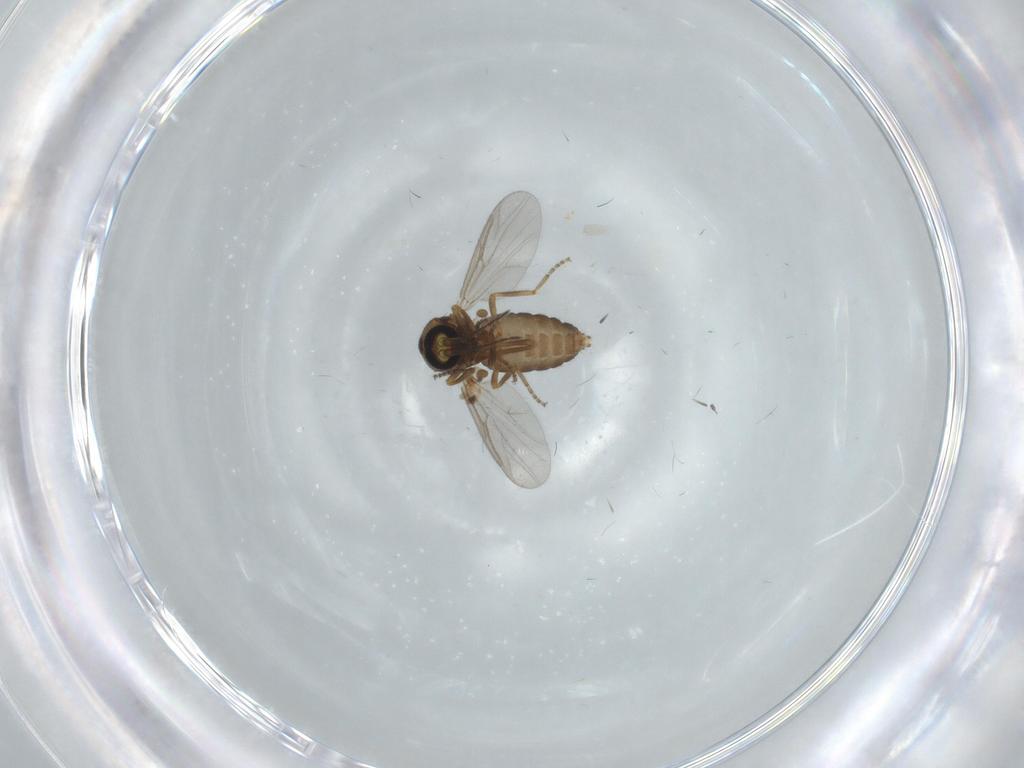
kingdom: Animalia
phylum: Arthropoda
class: Insecta
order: Diptera
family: Ceratopogonidae
